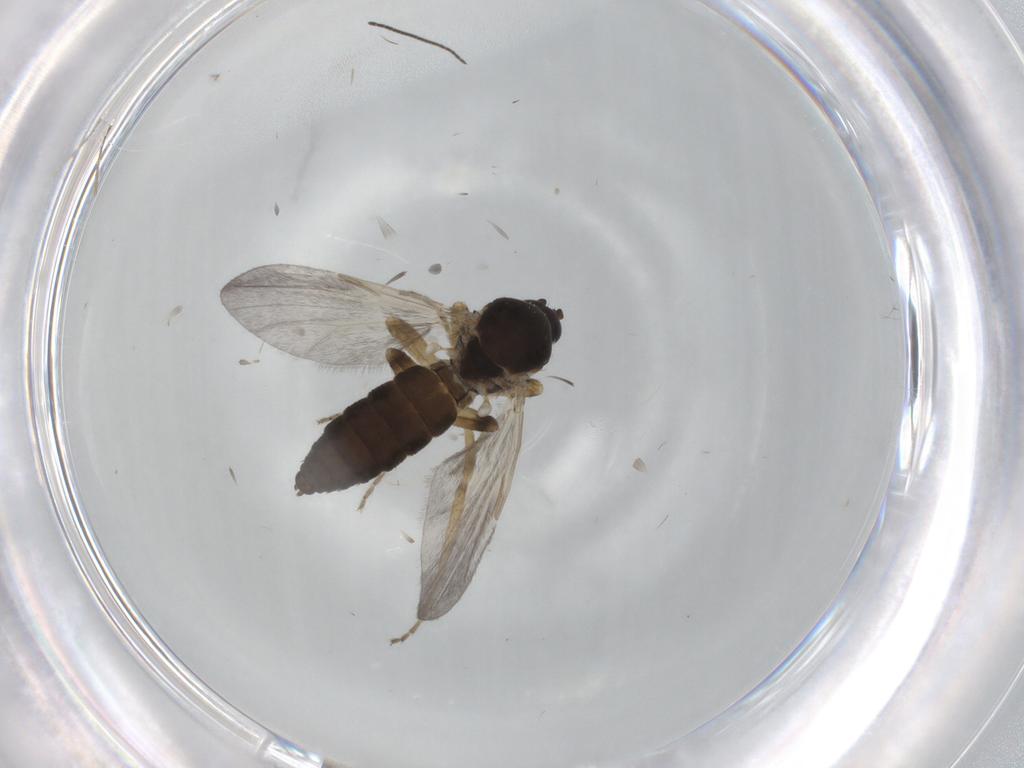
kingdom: Animalia
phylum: Arthropoda
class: Insecta
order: Diptera
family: Ceratopogonidae
